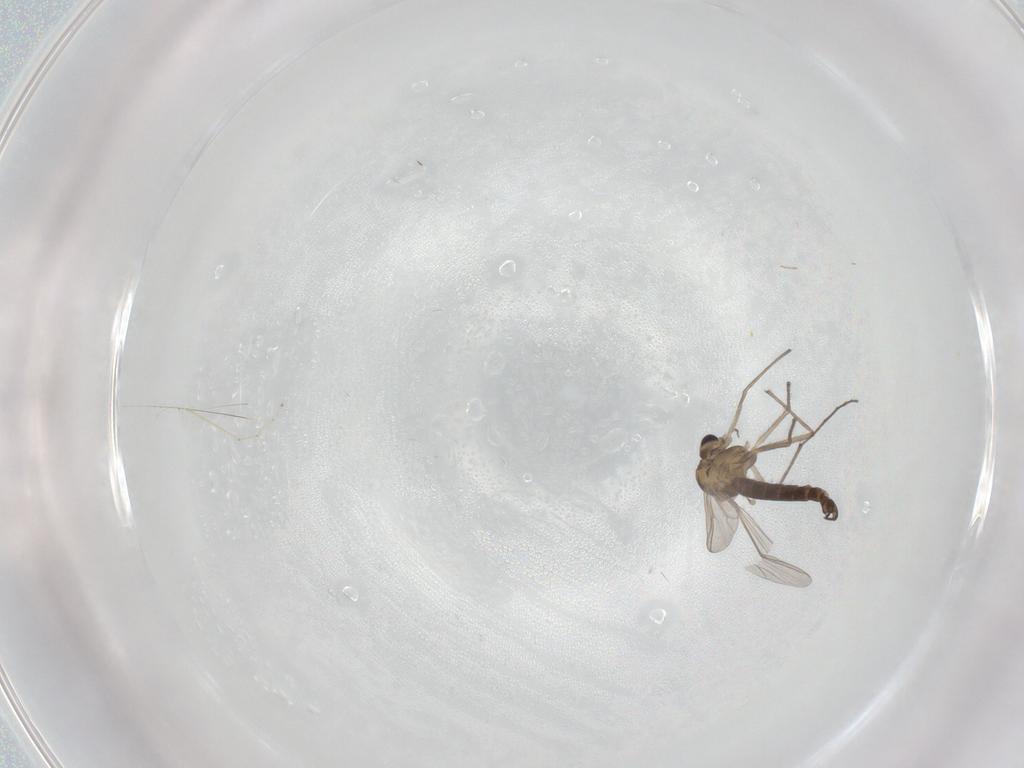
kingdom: Animalia
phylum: Arthropoda
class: Insecta
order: Diptera
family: Chironomidae
